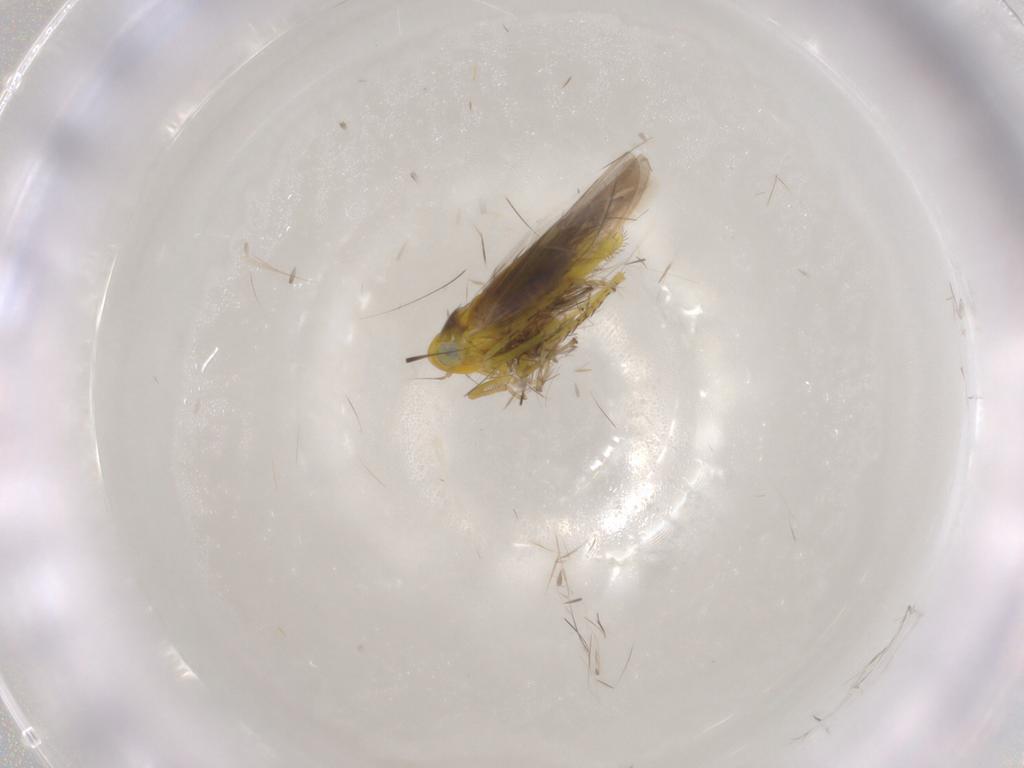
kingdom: Animalia
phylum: Arthropoda
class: Insecta
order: Hemiptera
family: Cicadellidae
